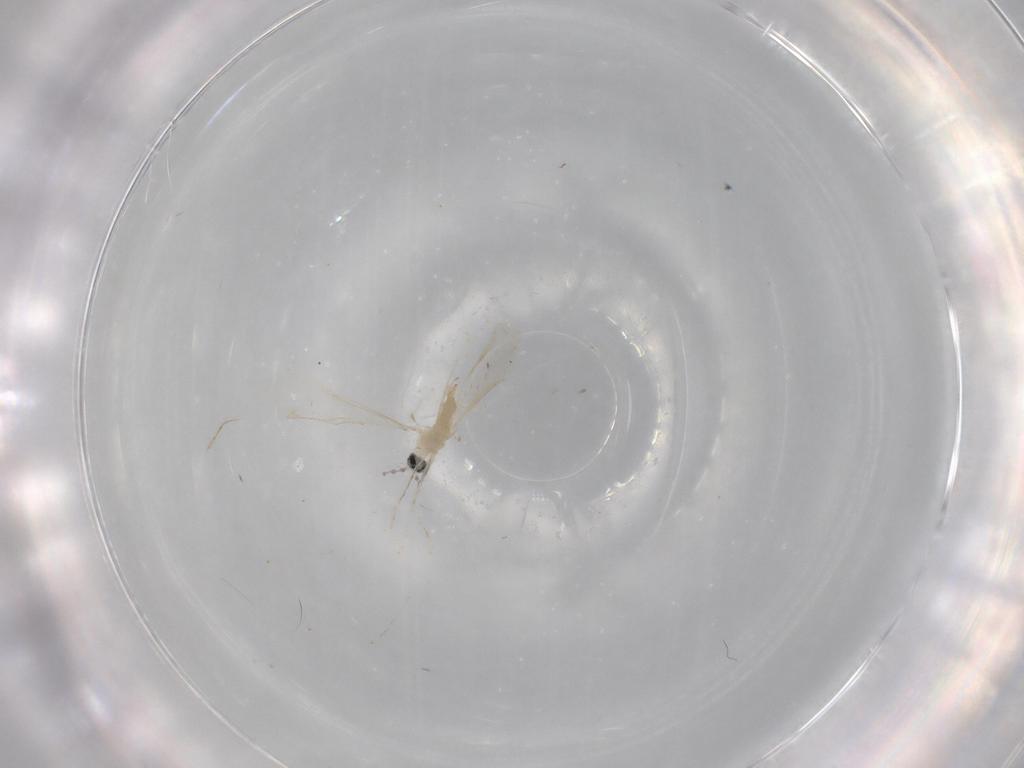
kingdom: Animalia
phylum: Arthropoda
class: Insecta
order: Diptera
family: Cecidomyiidae
